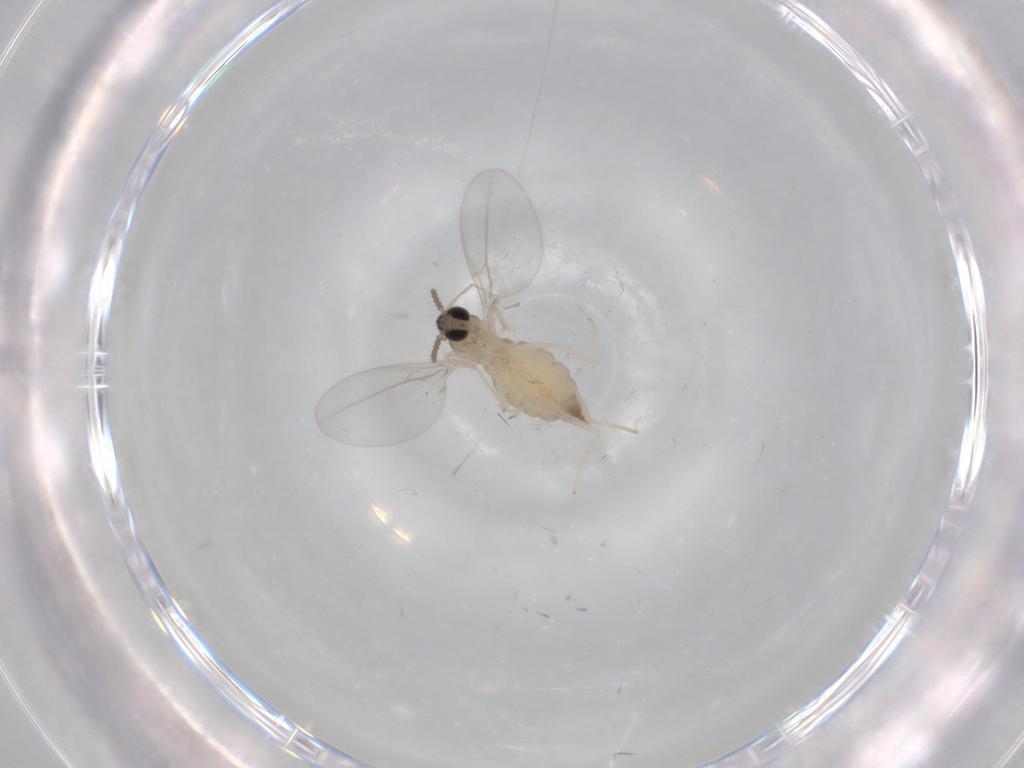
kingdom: Animalia
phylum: Arthropoda
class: Insecta
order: Diptera
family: Cecidomyiidae
